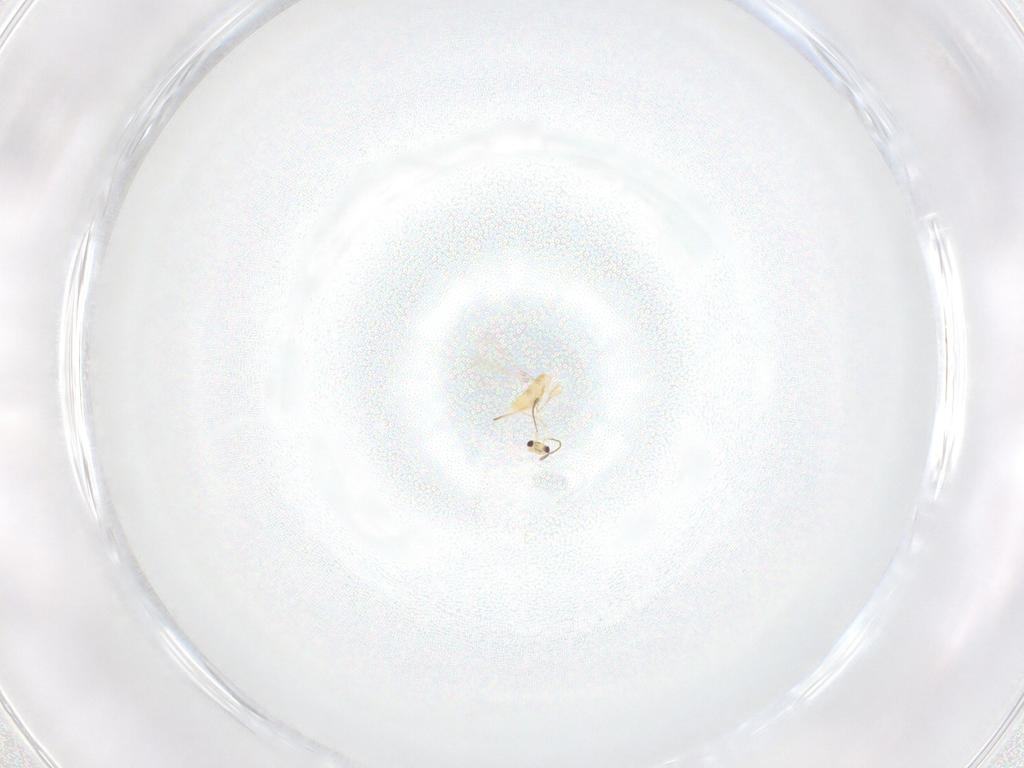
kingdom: Animalia
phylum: Arthropoda
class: Insecta
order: Hymenoptera
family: Mymaridae
